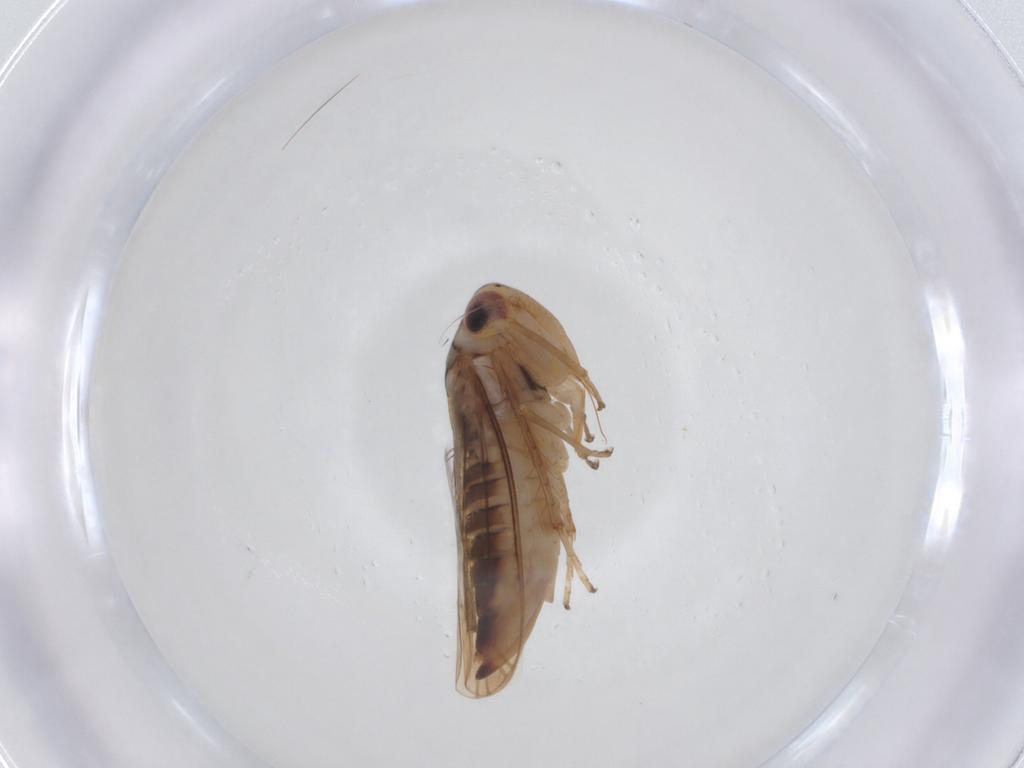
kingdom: Animalia
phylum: Arthropoda
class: Insecta
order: Hemiptera
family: Cicadellidae
